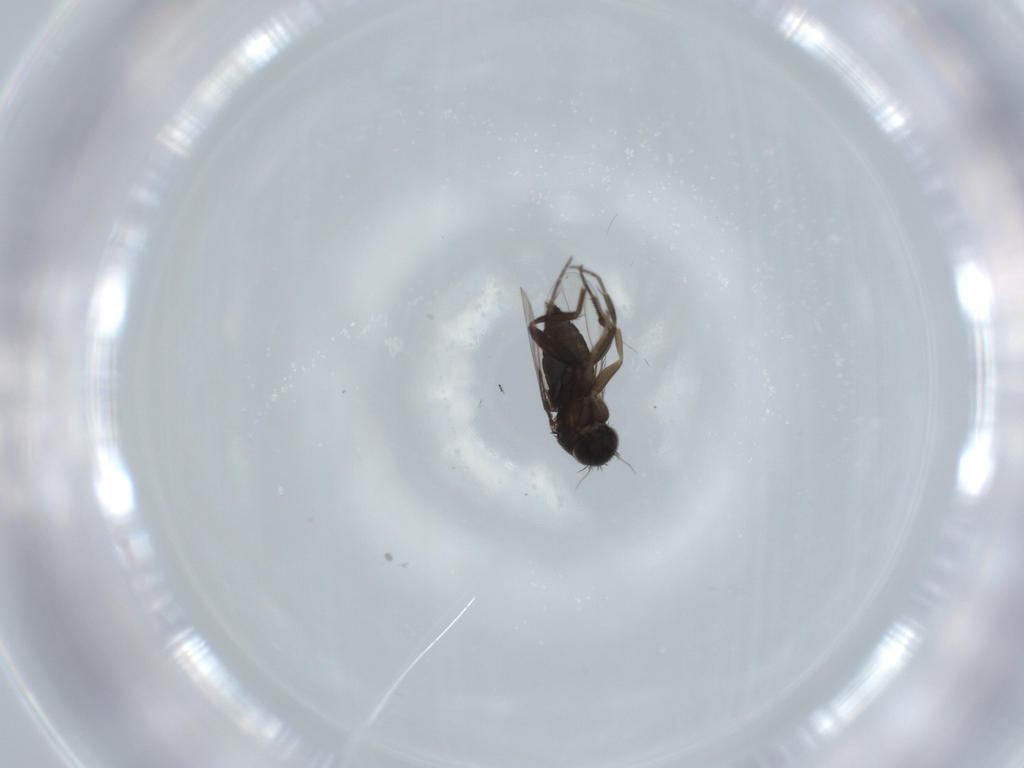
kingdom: Animalia
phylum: Arthropoda
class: Insecta
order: Diptera
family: Phoridae
